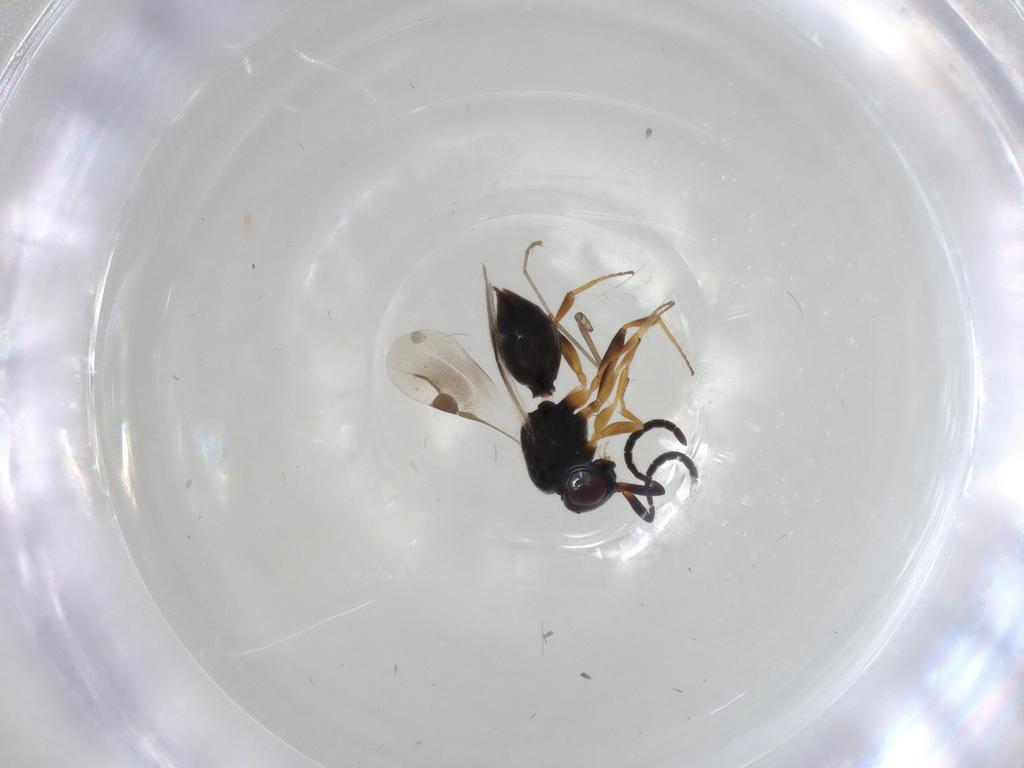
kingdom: Animalia
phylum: Arthropoda
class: Insecta
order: Hymenoptera
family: Megaspilidae
